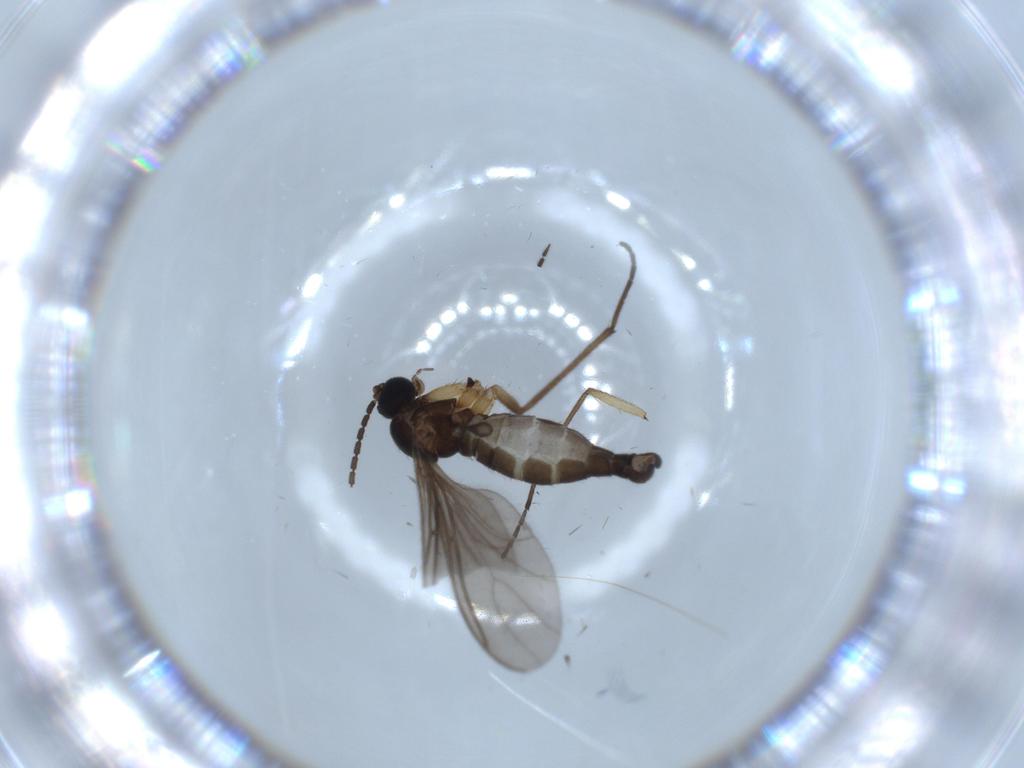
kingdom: Animalia
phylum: Arthropoda
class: Insecta
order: Diptera
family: Sciaridae
